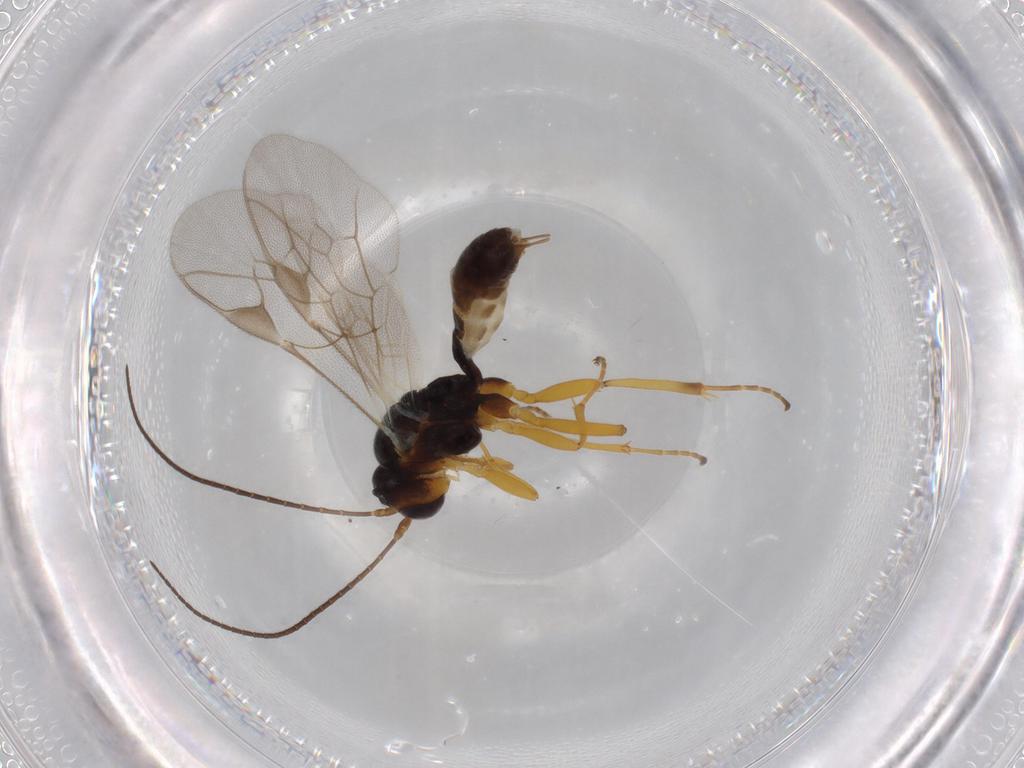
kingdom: Animalia
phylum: Arthropoda
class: Insecta
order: Hymenoptera
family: Ichneumonidae
